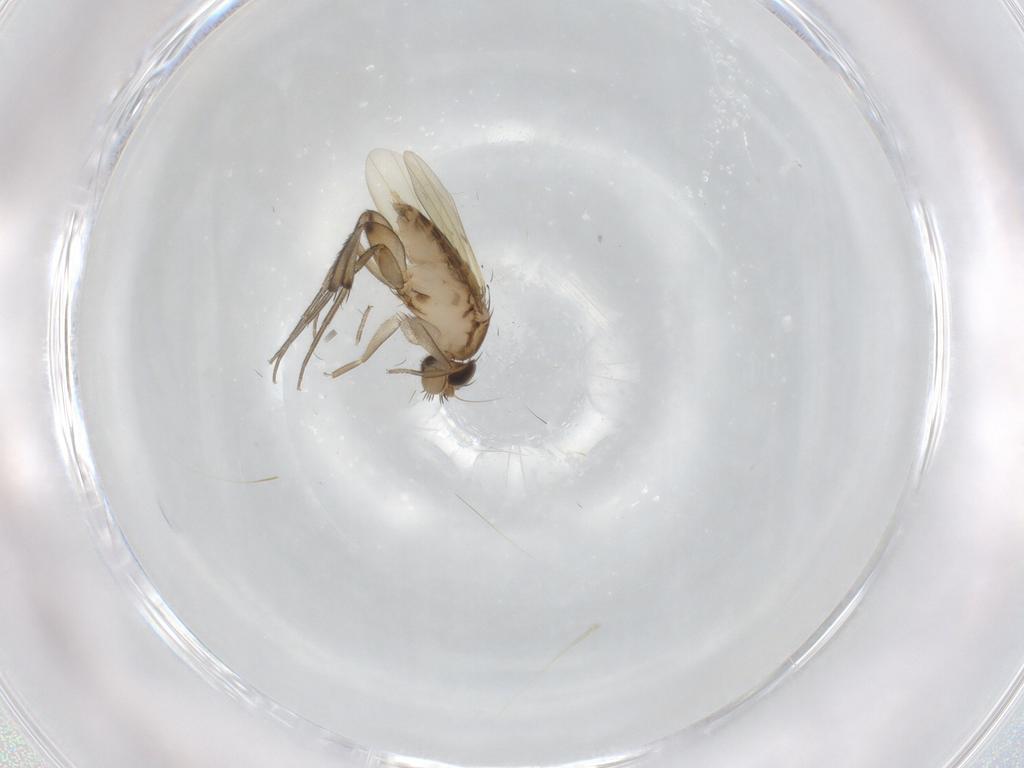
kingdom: Animalia
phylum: Arthropoda
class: Insecta
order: Diptera
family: Phoridae
